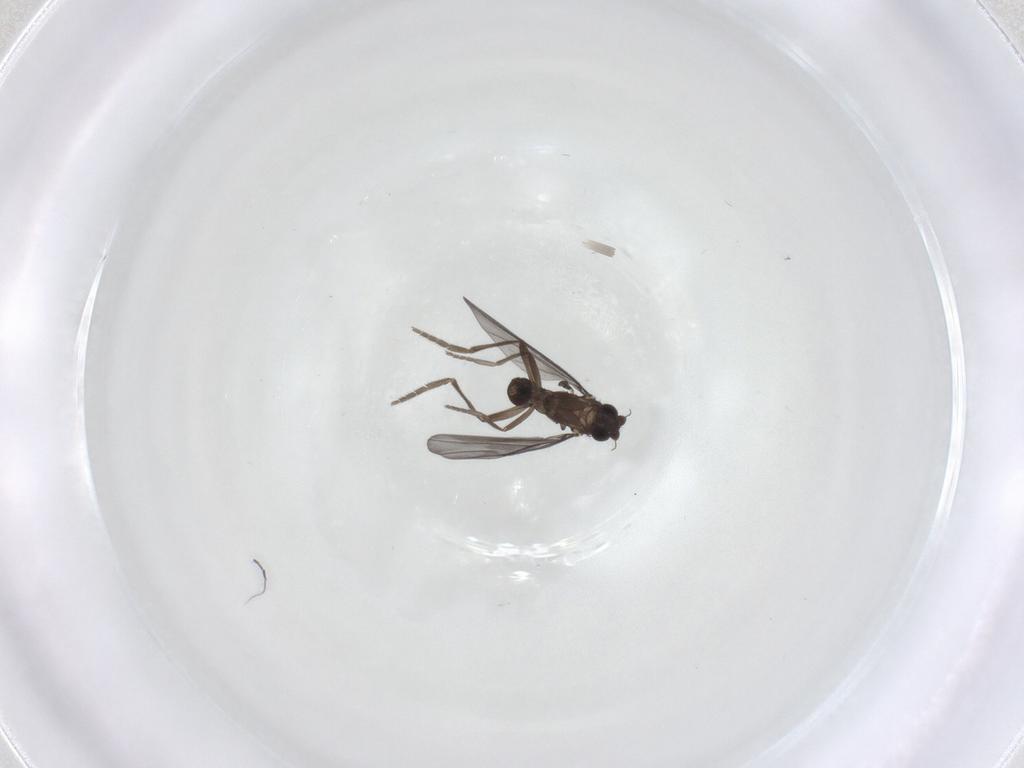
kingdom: Animalia
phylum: Arthropoda
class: Insecta
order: Diptera
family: Phoridae
